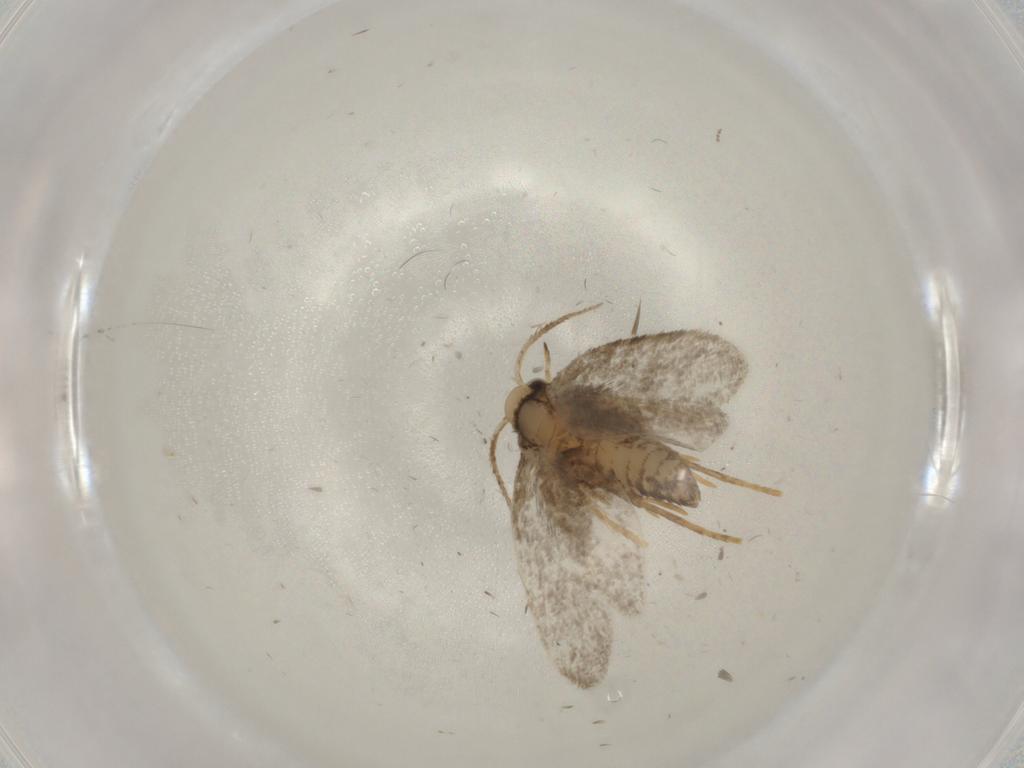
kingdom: Animalia
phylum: Arthropoda
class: Insecta
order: Lepidoptera
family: Psychidae
